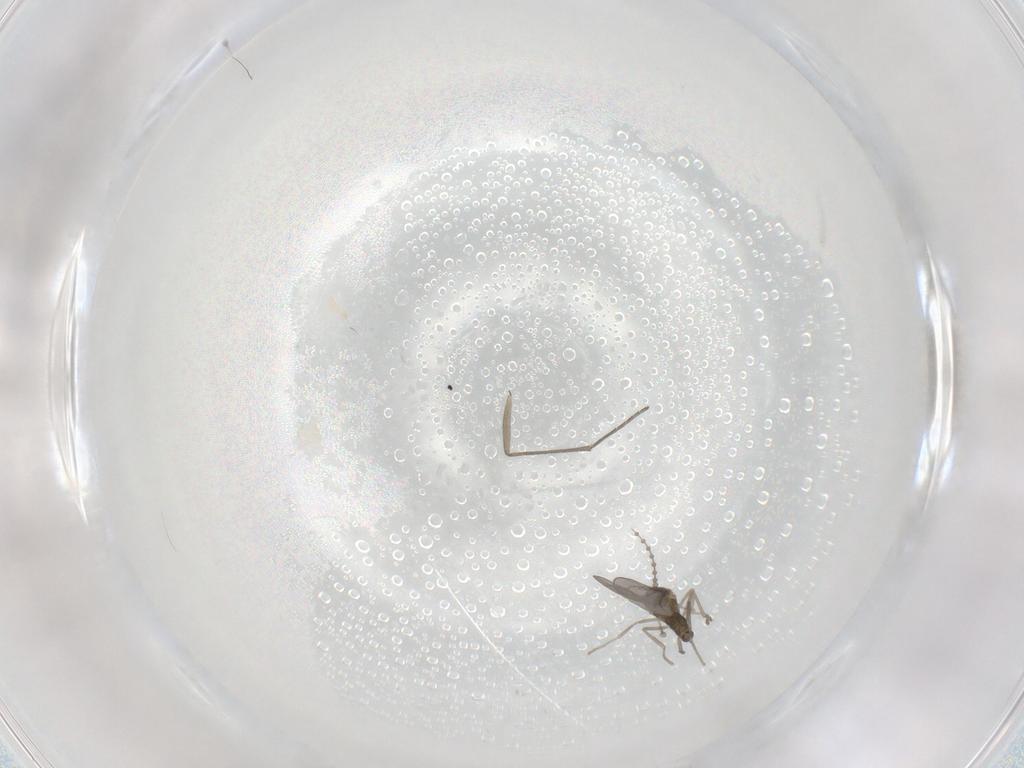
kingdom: Animalia
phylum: Arthropoda
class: Insecta
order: Diptera
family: Cecidomyiidae
